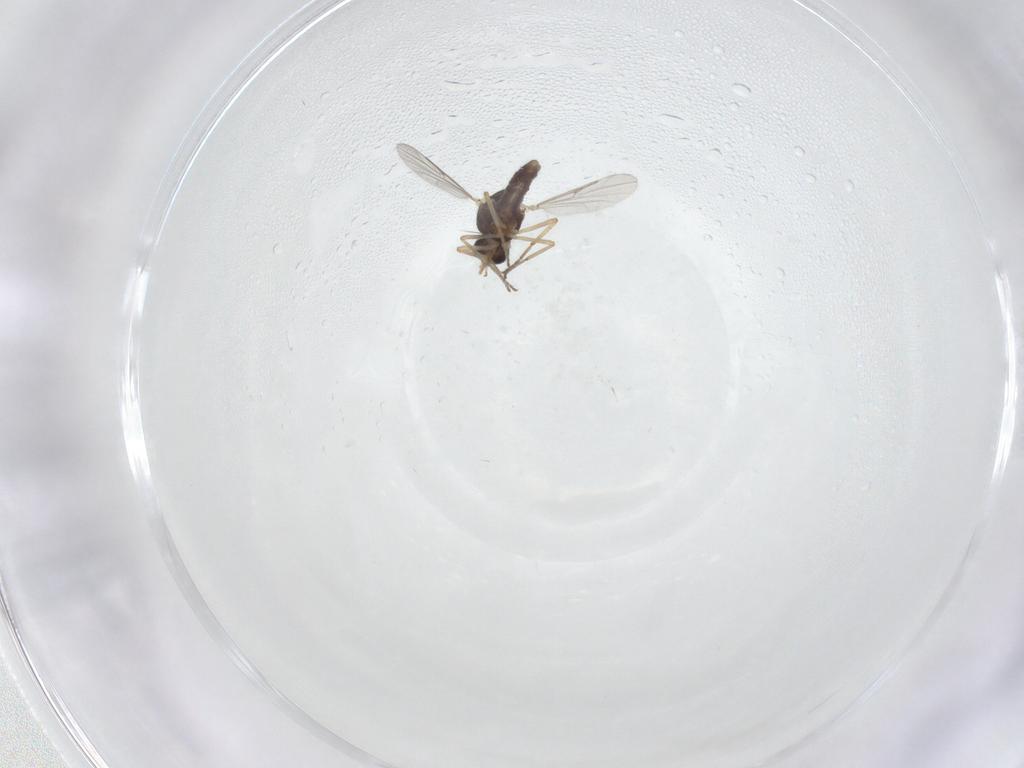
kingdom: Animalia
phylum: Arthropoda
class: Insecta
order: Diptera
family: Ceratopogonidae
